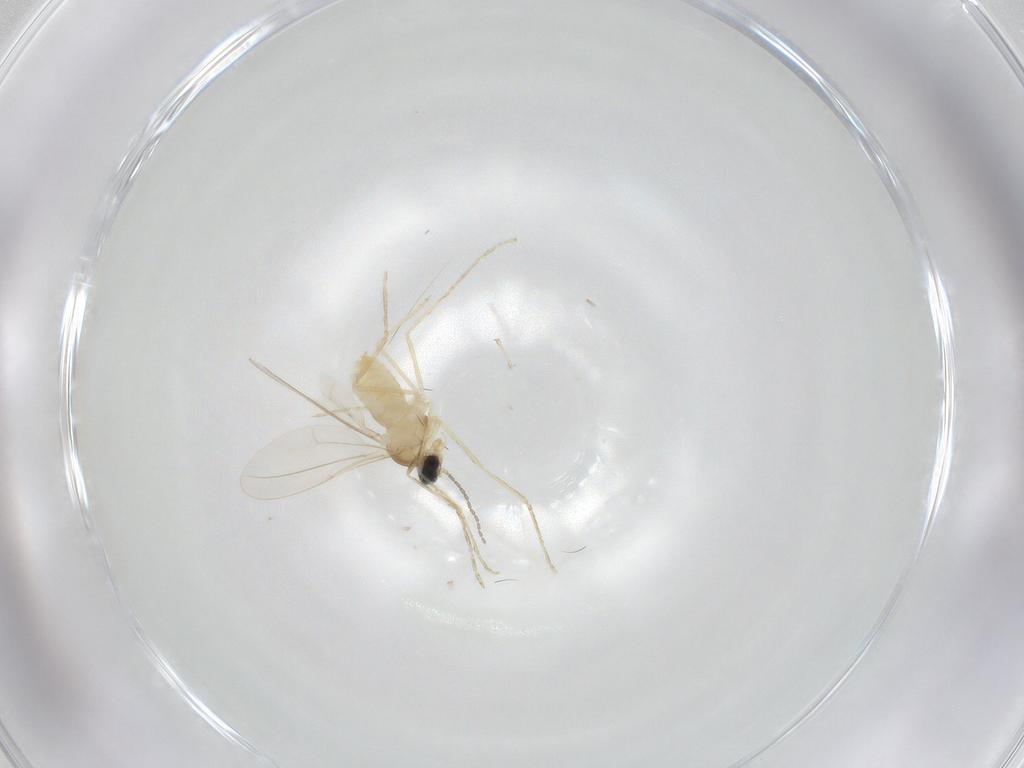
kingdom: Animalia
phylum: Arthropoda
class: Insecta
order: Diptera
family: Cecidomyiidae
